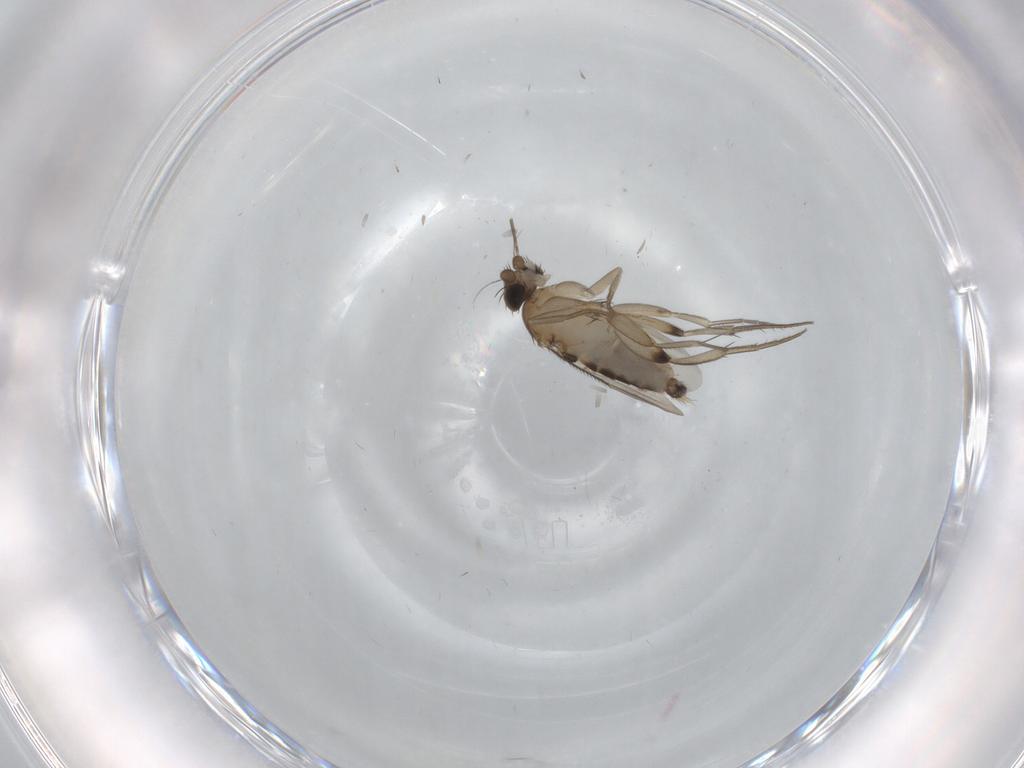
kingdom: Animalia
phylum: Arthropoda
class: Insecta
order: Diptera
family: Phoridae
